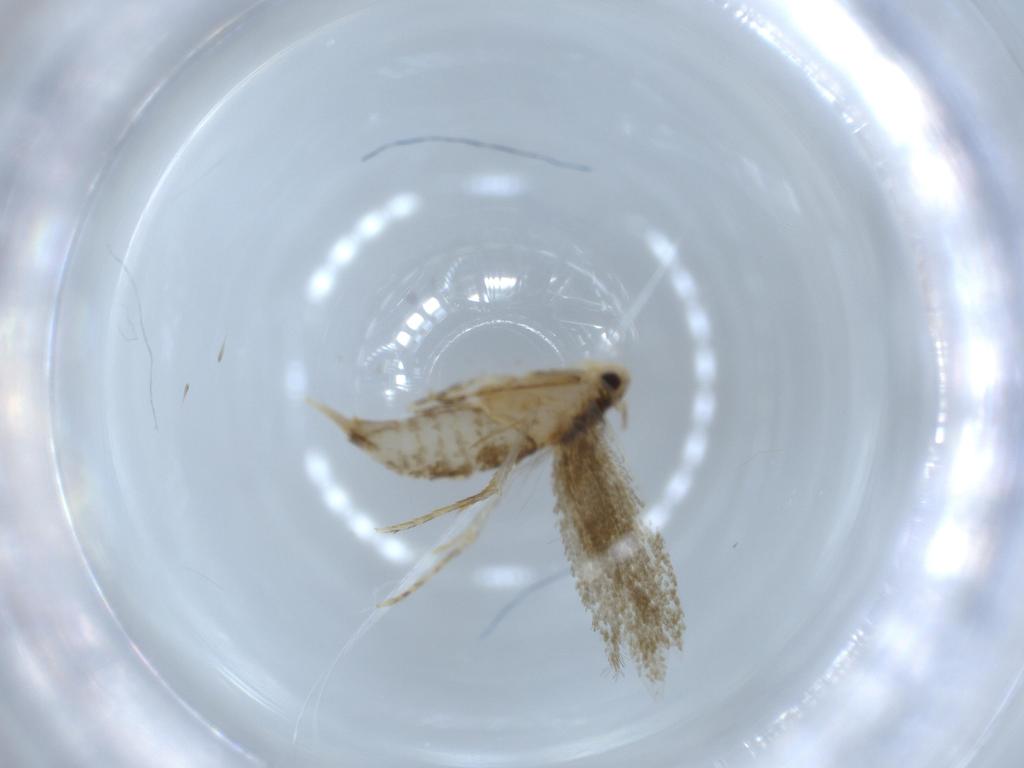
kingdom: Animalia
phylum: Arthropoda
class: Insecta
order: Lepidoptera
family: Tineidae
